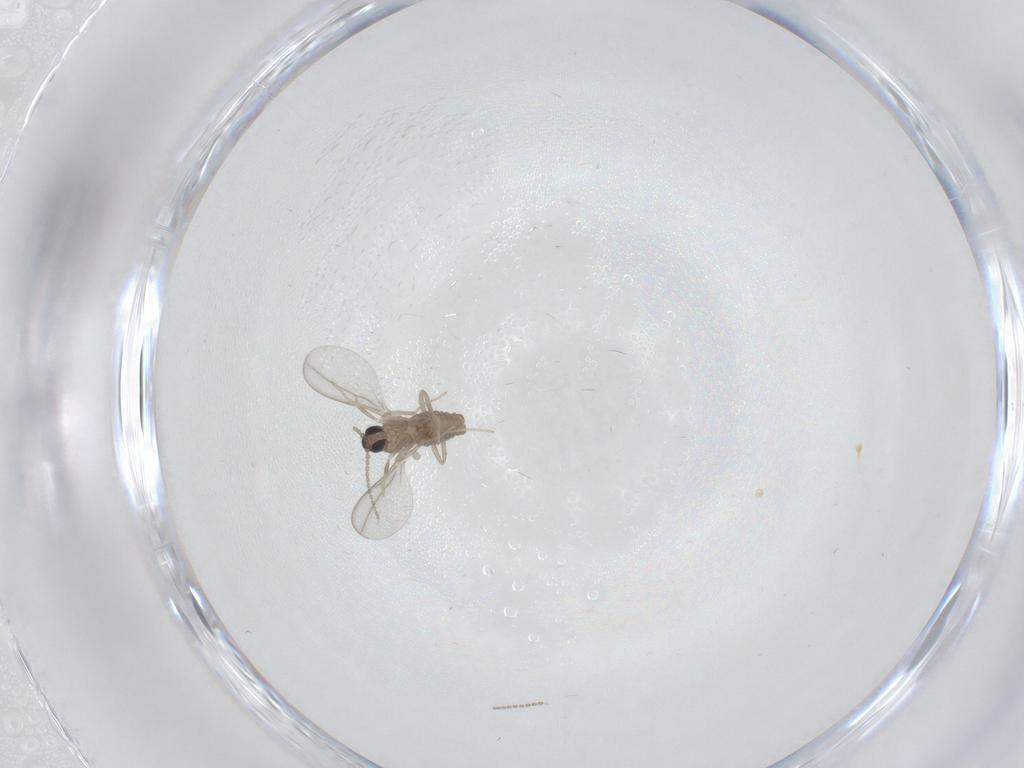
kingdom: Animalia
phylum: Arthropoda
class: Insecta
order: Diptera
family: Cecidomyiidae
